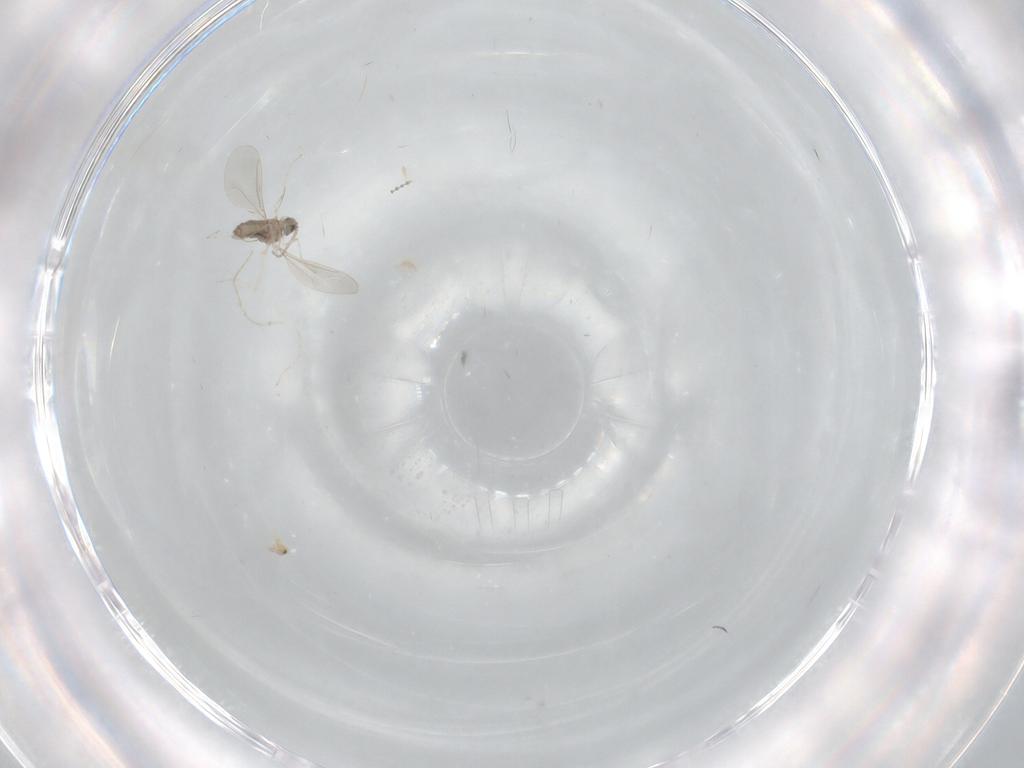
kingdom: Animalia
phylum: Arthropoda
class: Insecta
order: Diptera
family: Cecidomyiidae
